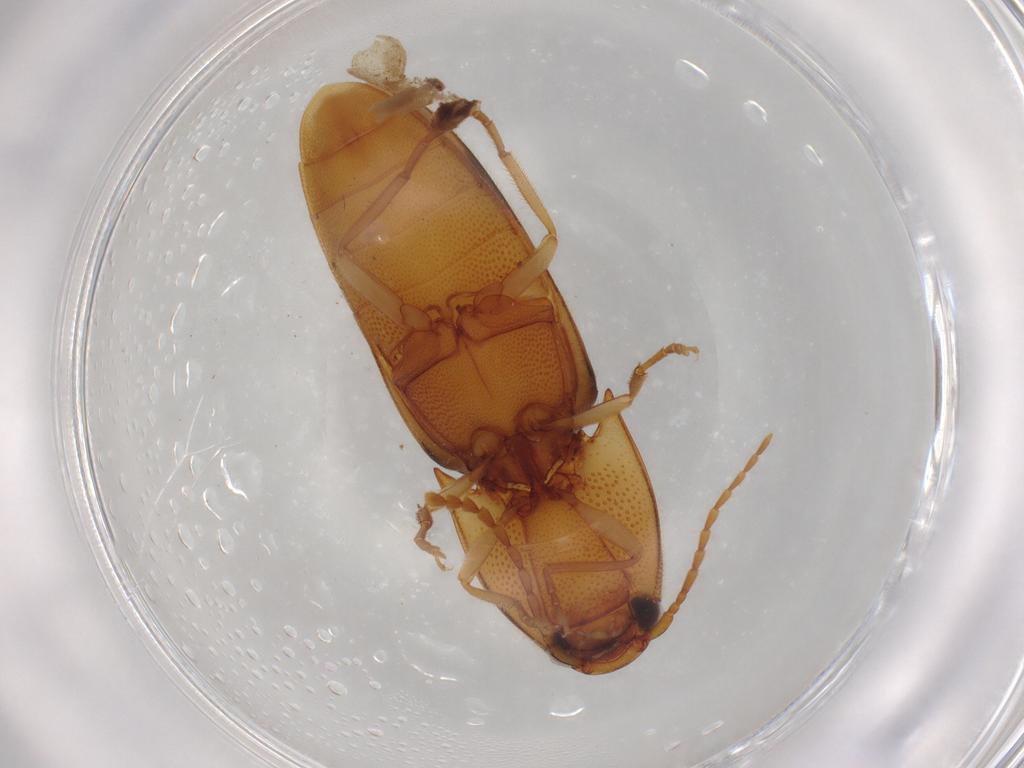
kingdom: Animalia
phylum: Arthropoda
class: Insecta
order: Coleoptera
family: Elateridae
